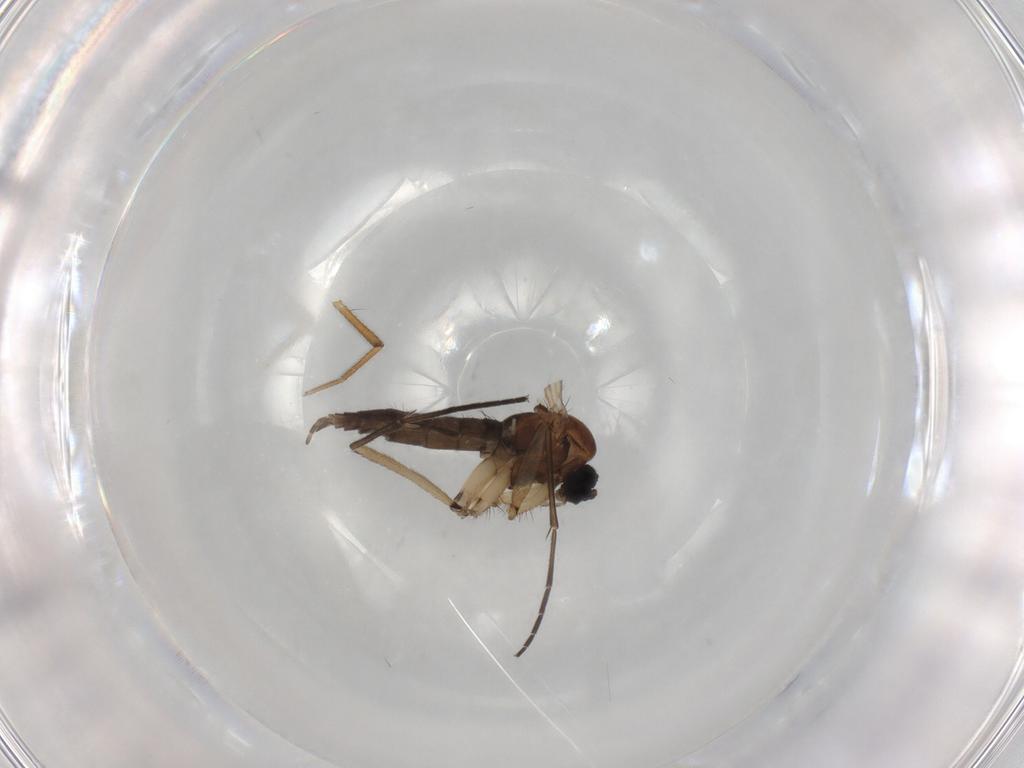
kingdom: Animalia
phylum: Arthropoda
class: Insecta
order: Diptera
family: Sciaridae
